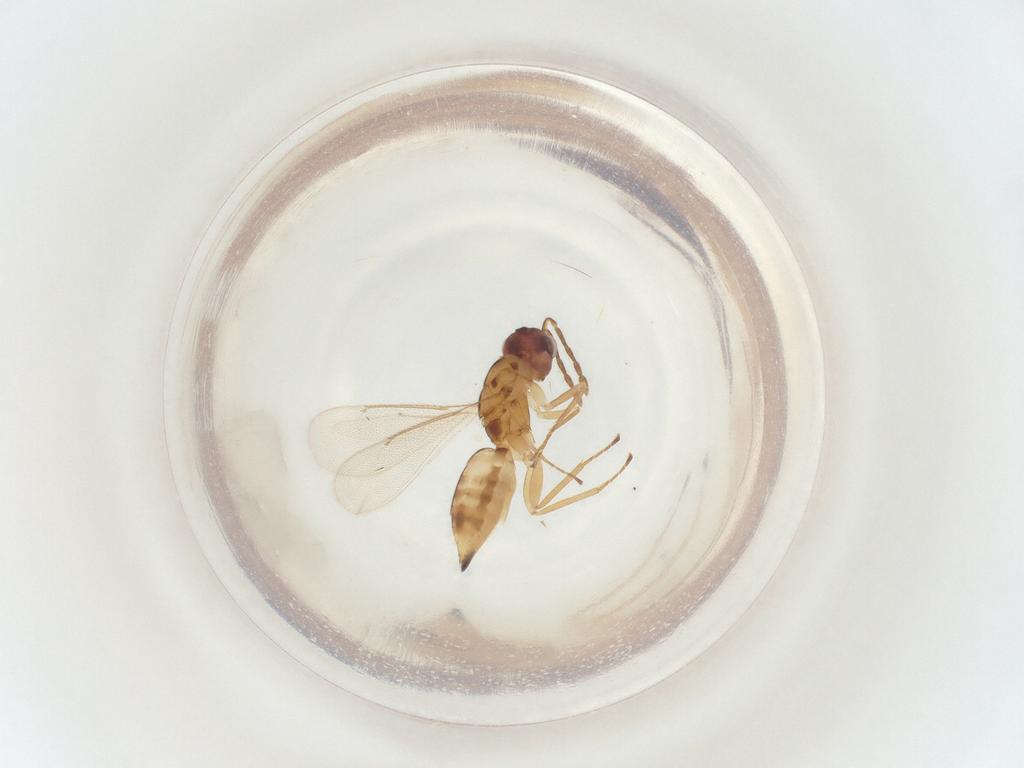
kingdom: Animalia
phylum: Arthropoda
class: Insecta
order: Hymenoptera
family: Eulophidae
